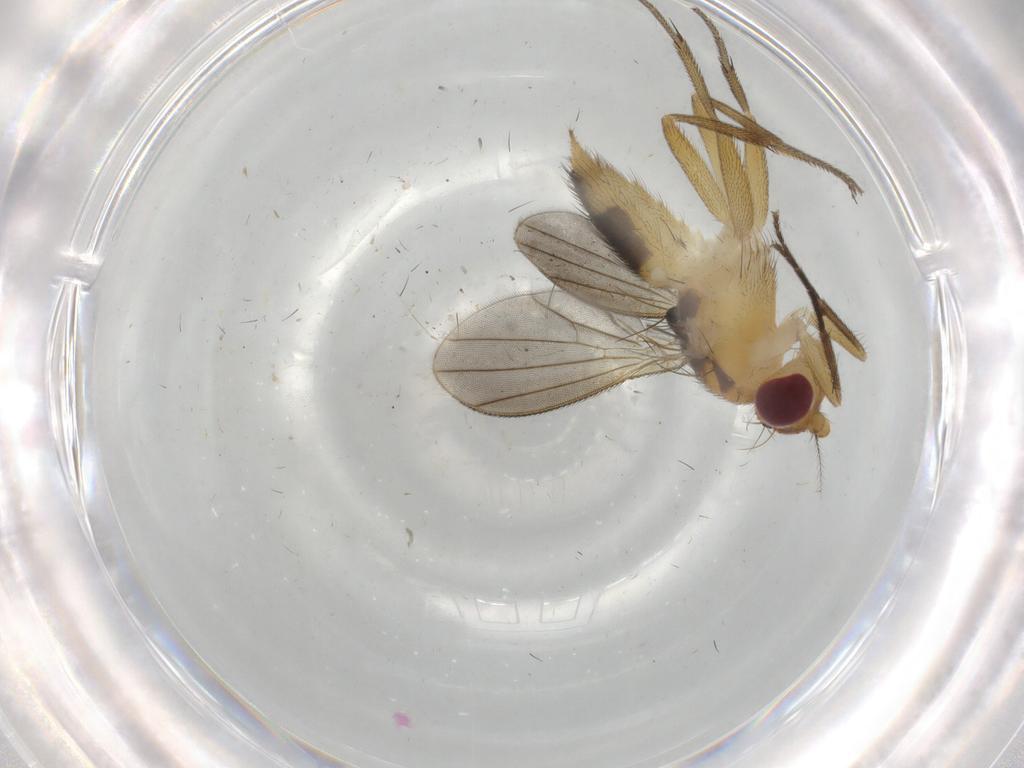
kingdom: Animalia
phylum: Arthropoda
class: Insecta
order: Diptera
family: Clusiidae
